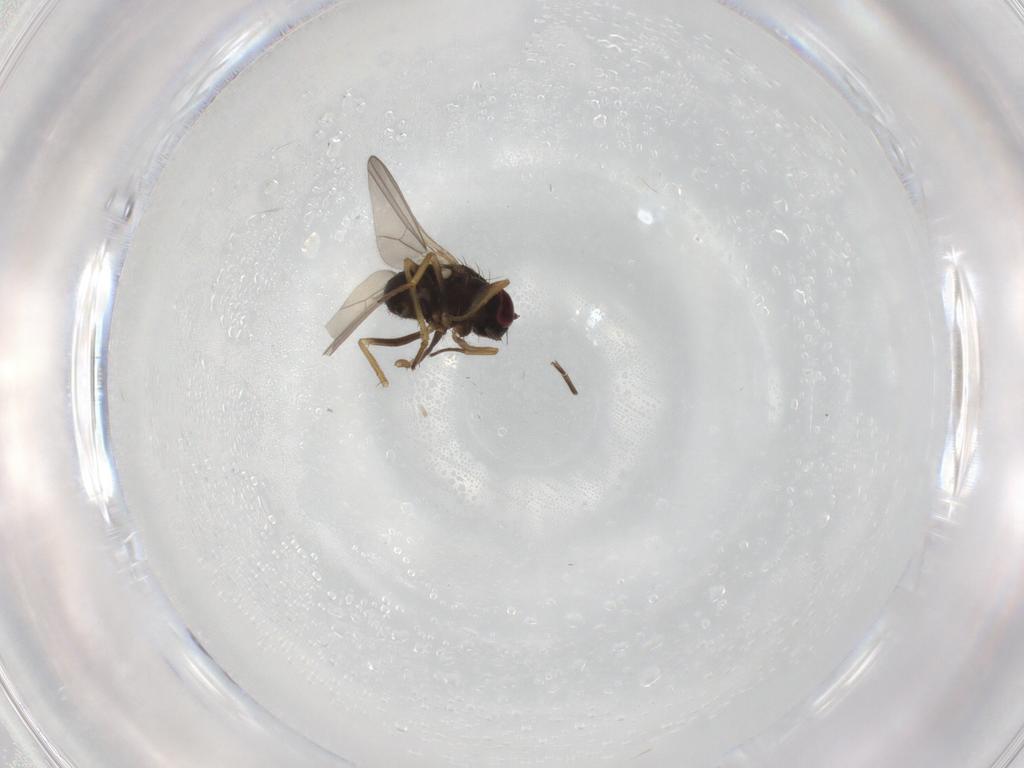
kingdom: Animalia
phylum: Arthropoda
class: Insecta
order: Diptera
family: Dolichopodidae
